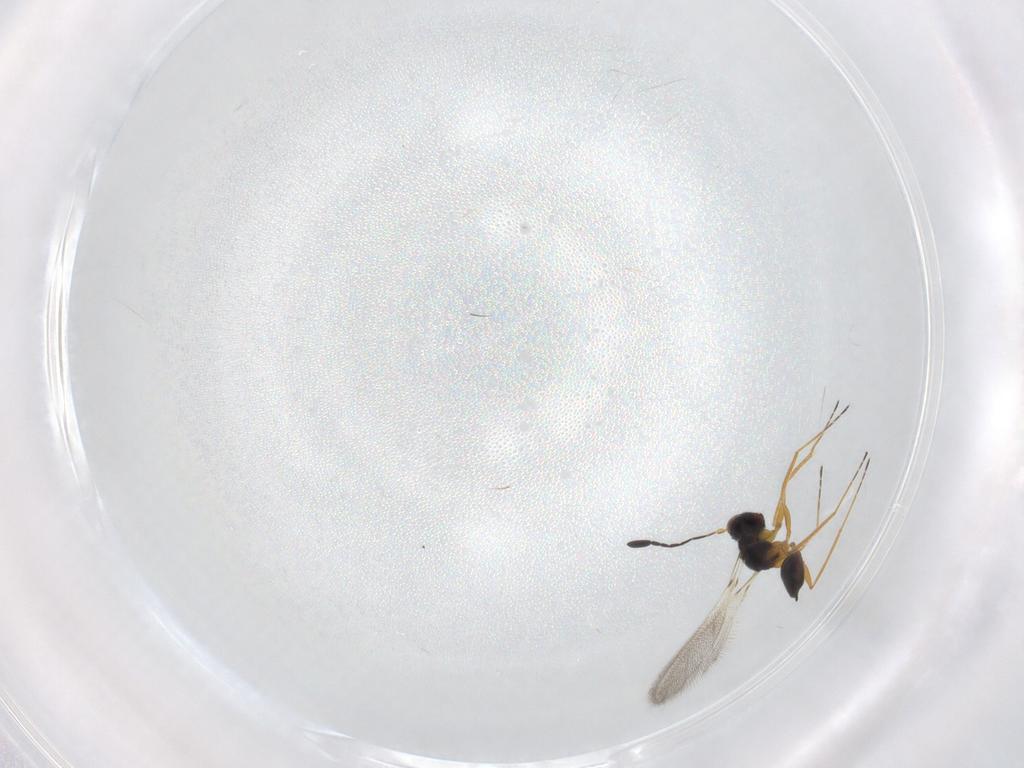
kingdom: Animalia
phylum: Arthropoda
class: Insecta
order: Hymenoptera
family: Pteromalidae
